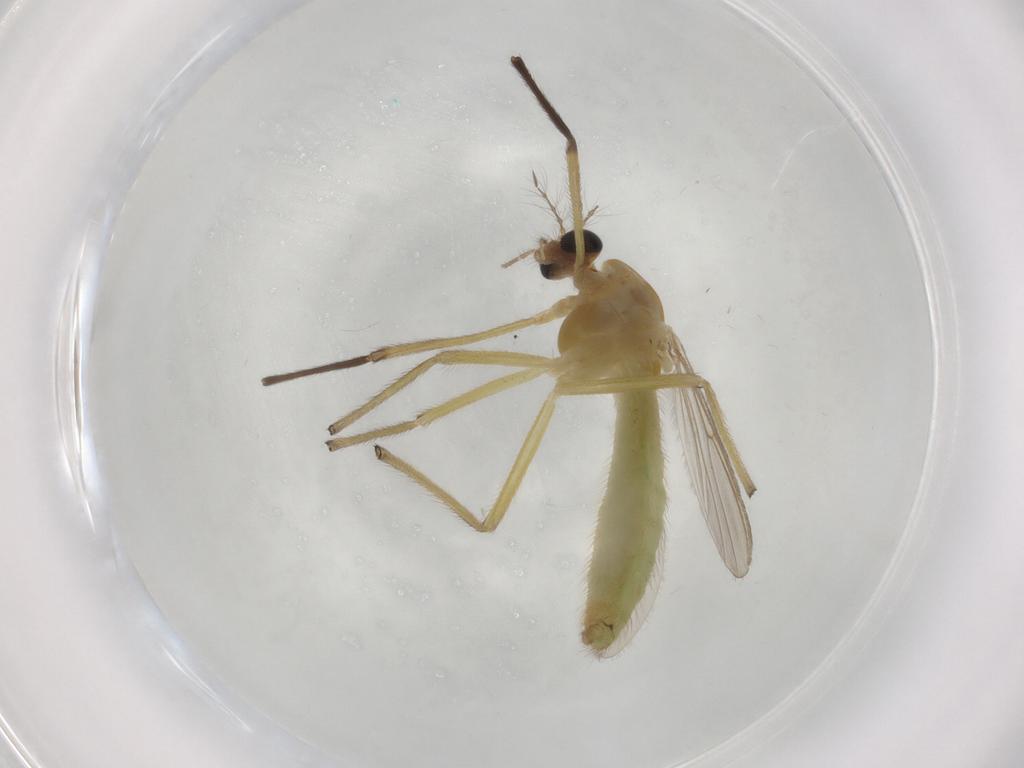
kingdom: Animalia
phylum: Arthropoda
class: Insecta
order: Diptera
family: Chironomidae
